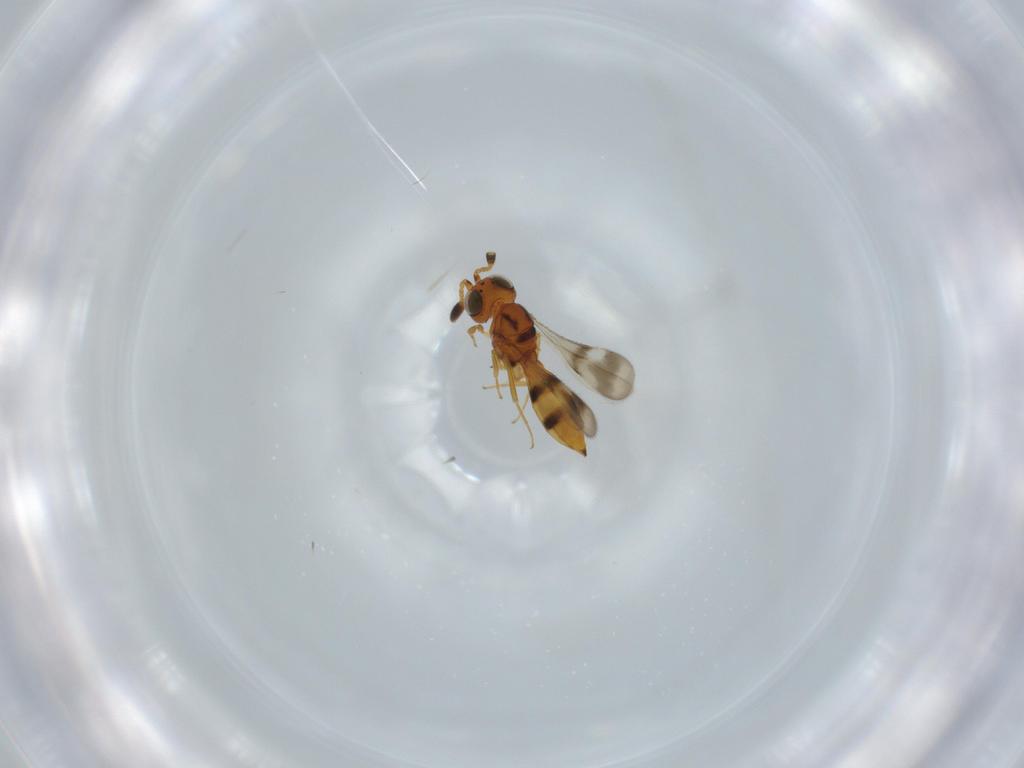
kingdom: Animalia
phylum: Arthropoda
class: Insecta
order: Hymenoptera
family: Scelionidae
